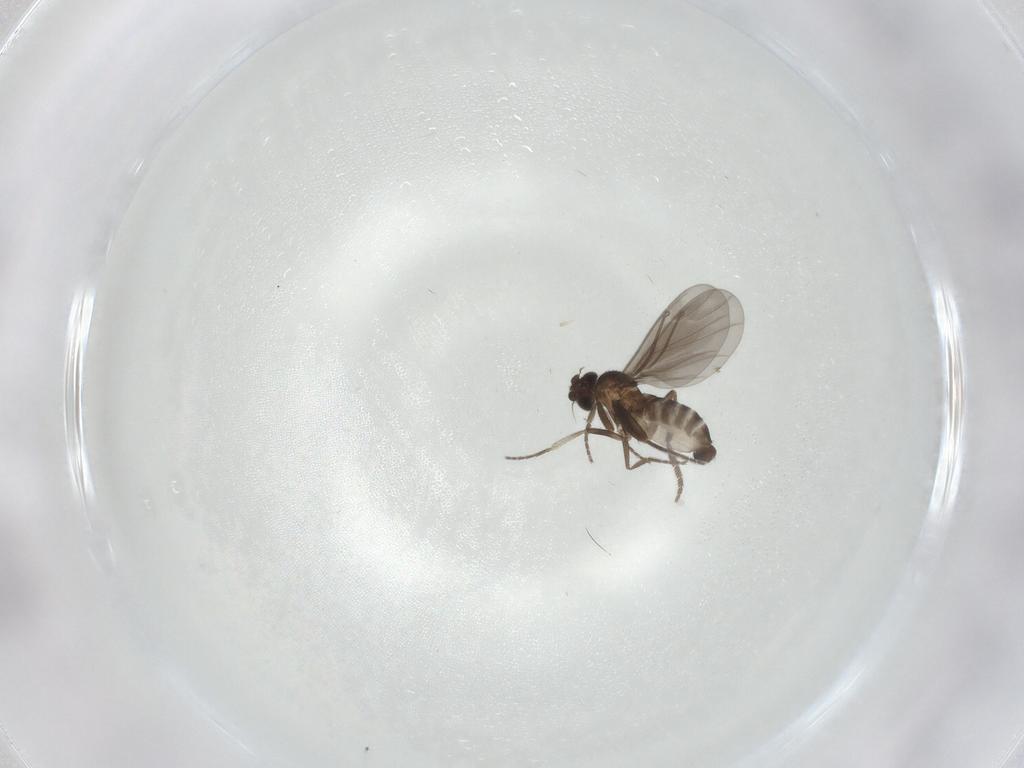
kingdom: Animalia
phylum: Arthropoda
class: Insecta
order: Diptera
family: Phoridae
